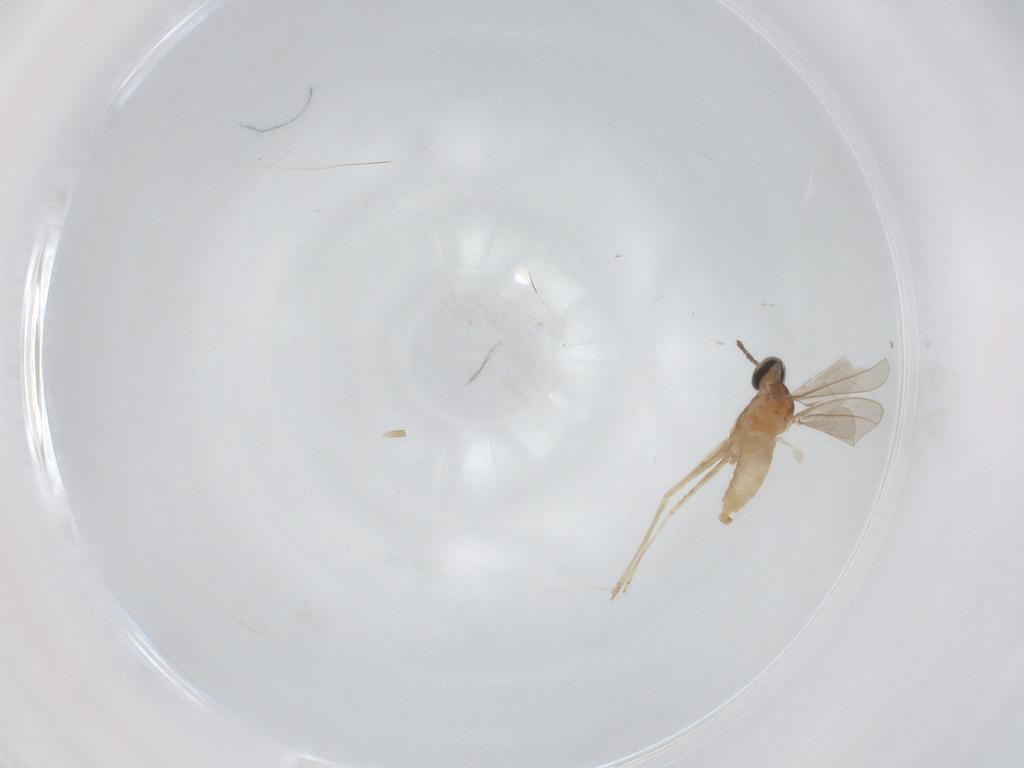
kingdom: Animalia
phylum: Arthropoda
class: Insecta
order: Diptera
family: Cecidomyiidae
